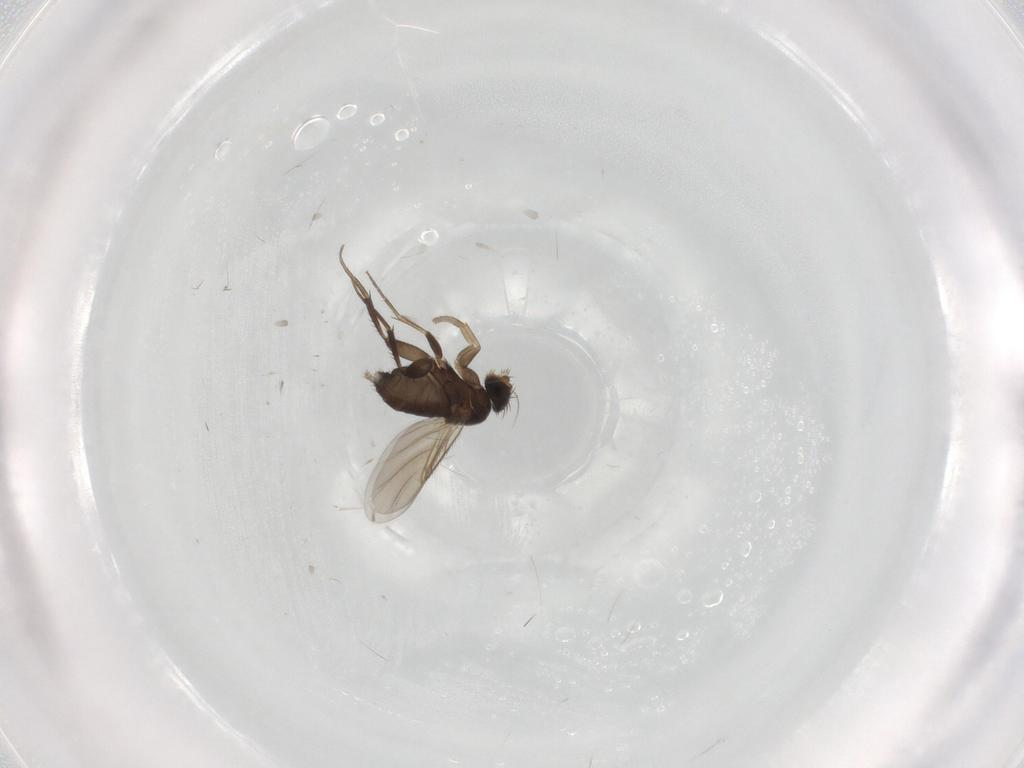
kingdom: Animalia
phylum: Arthropoda
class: Insecta
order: Diptera
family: Phoridae
